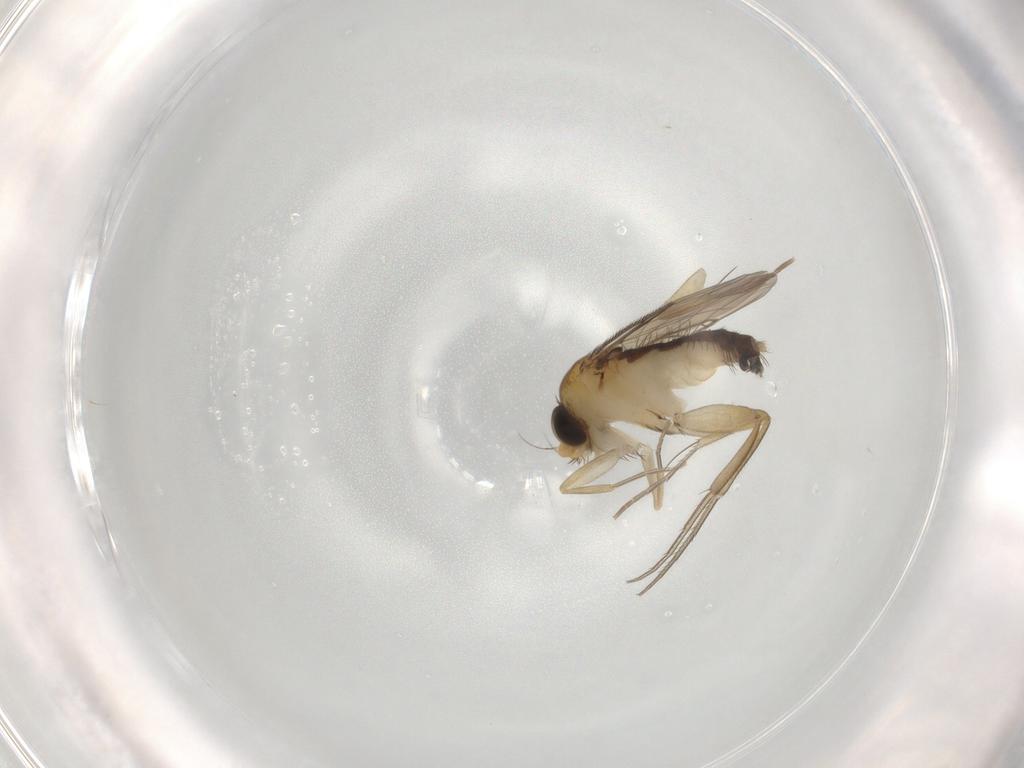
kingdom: Animalia
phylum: Arthropoda
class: Insecta
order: Diptera
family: Phoridae
